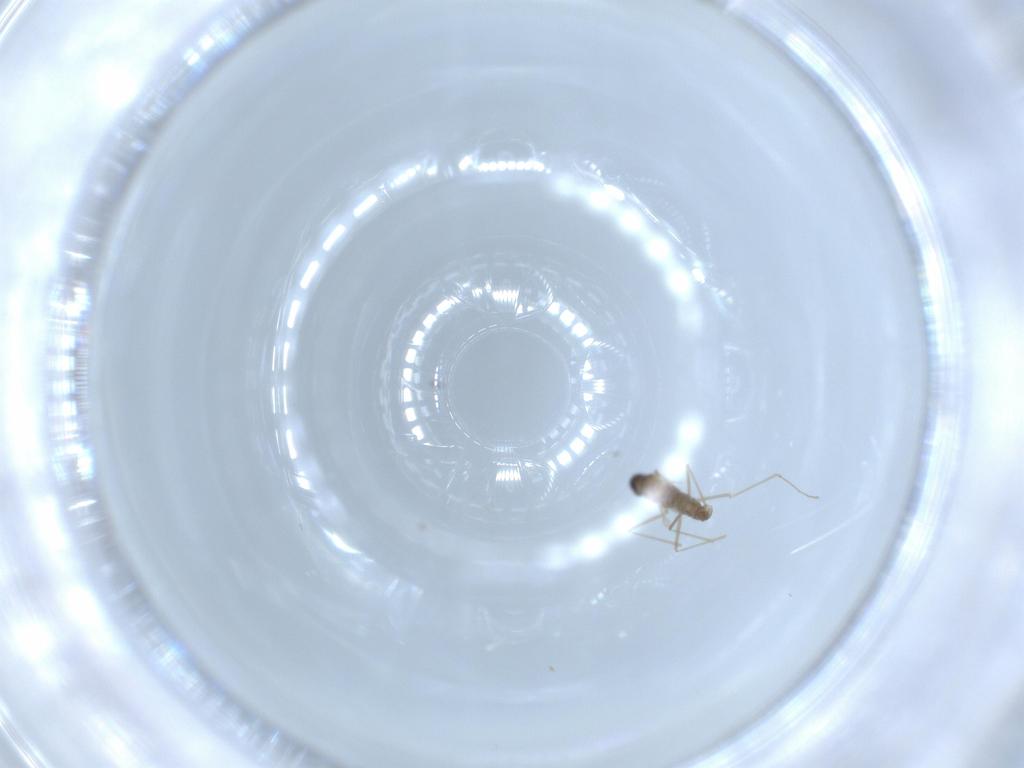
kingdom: Animalia
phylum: Arthropoda
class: Insecta
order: Diptera
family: Cecidomyiidae
